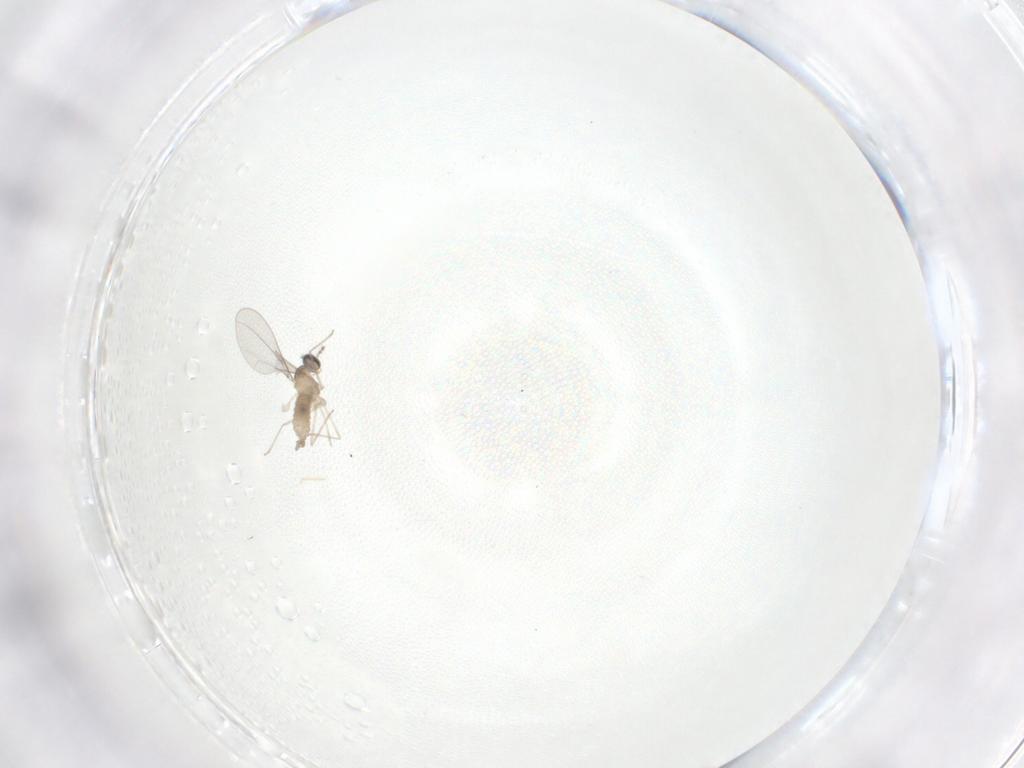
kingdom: Animalia
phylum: Arthropoda
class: Insecta
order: Diptera
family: Cecidomyiidae
